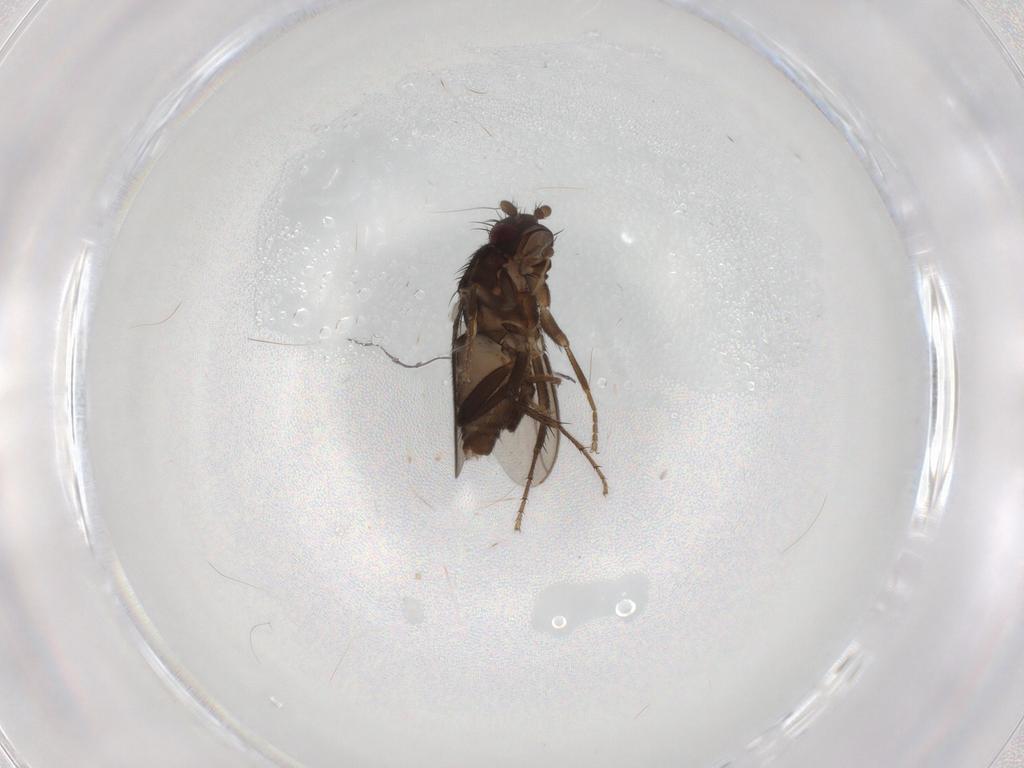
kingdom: Animalia
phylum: Arthropoda
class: Insecta
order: Diptera
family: Sphaeroceridae
